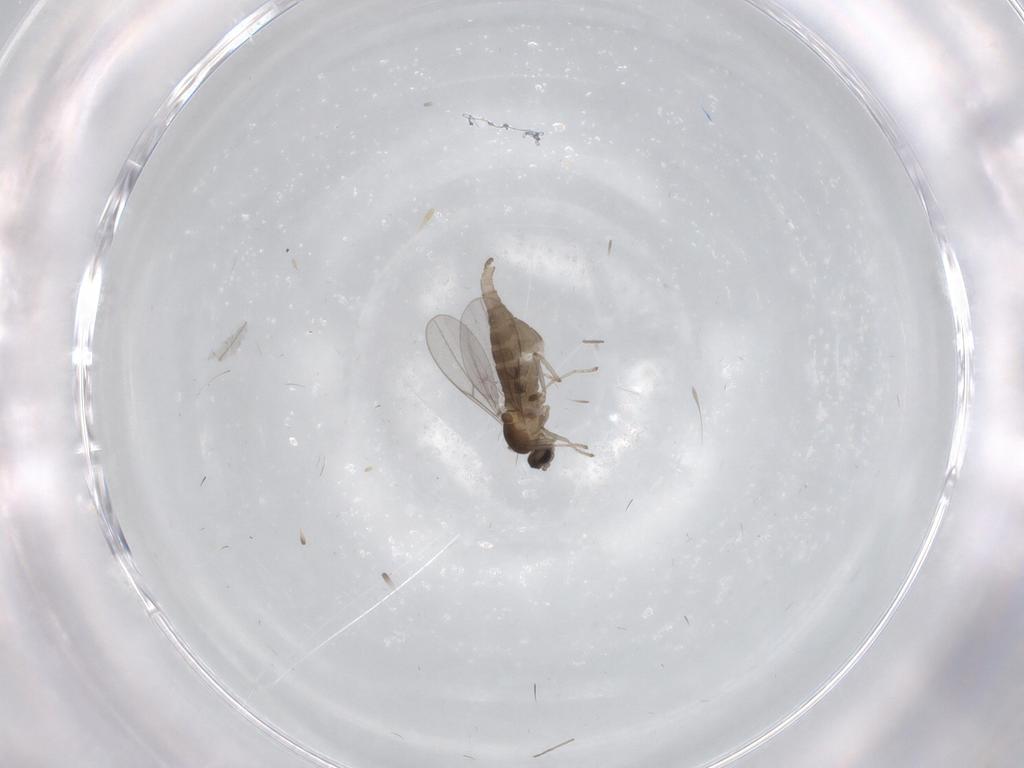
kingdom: Animalia
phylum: Arthropoda
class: Insecta
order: Diptera
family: Cecidomyiidae
